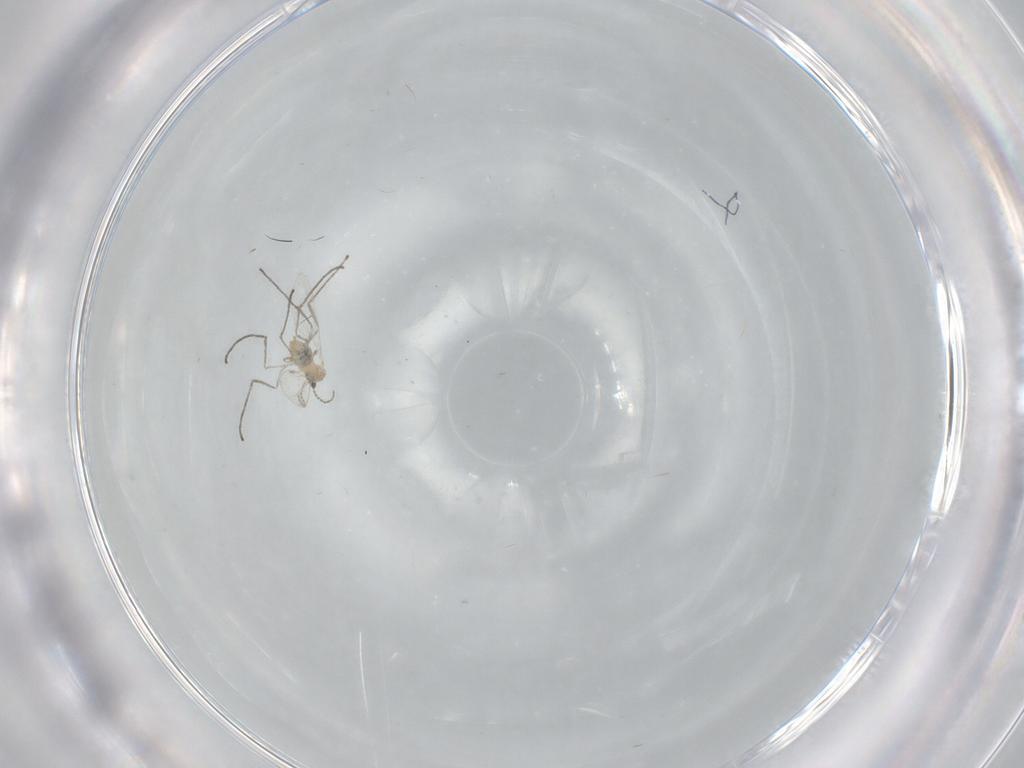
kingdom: Animalia
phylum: Arthropoda
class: Insecta
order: Diptera
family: Cecidomyiidae
